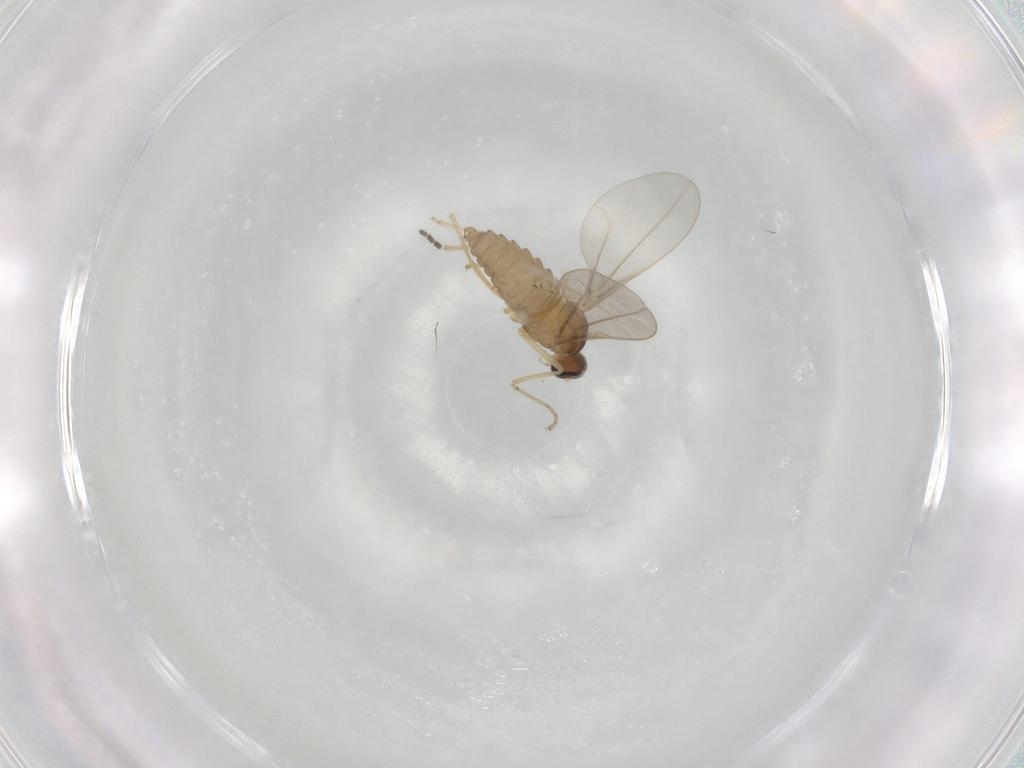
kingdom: Animalia
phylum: Arthropoda
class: Insecta
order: Diptera
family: Cecidomyiidae
